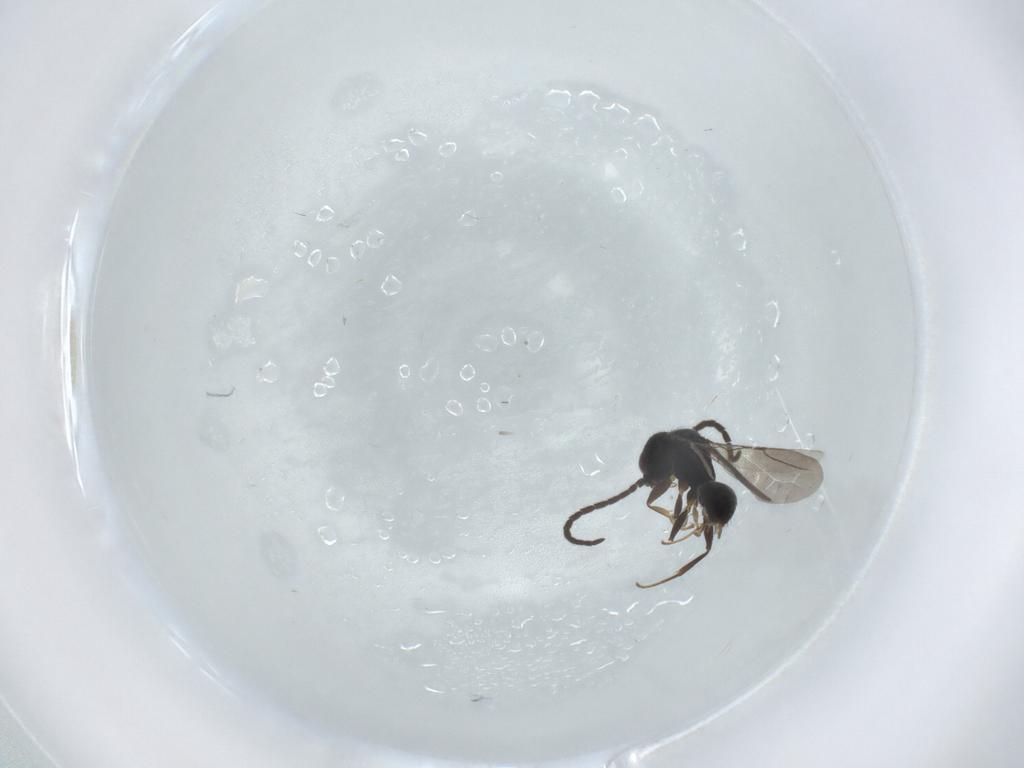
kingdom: Animalia
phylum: Arthropoda
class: Insecta
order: Hymenoptera
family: Bethylidae
